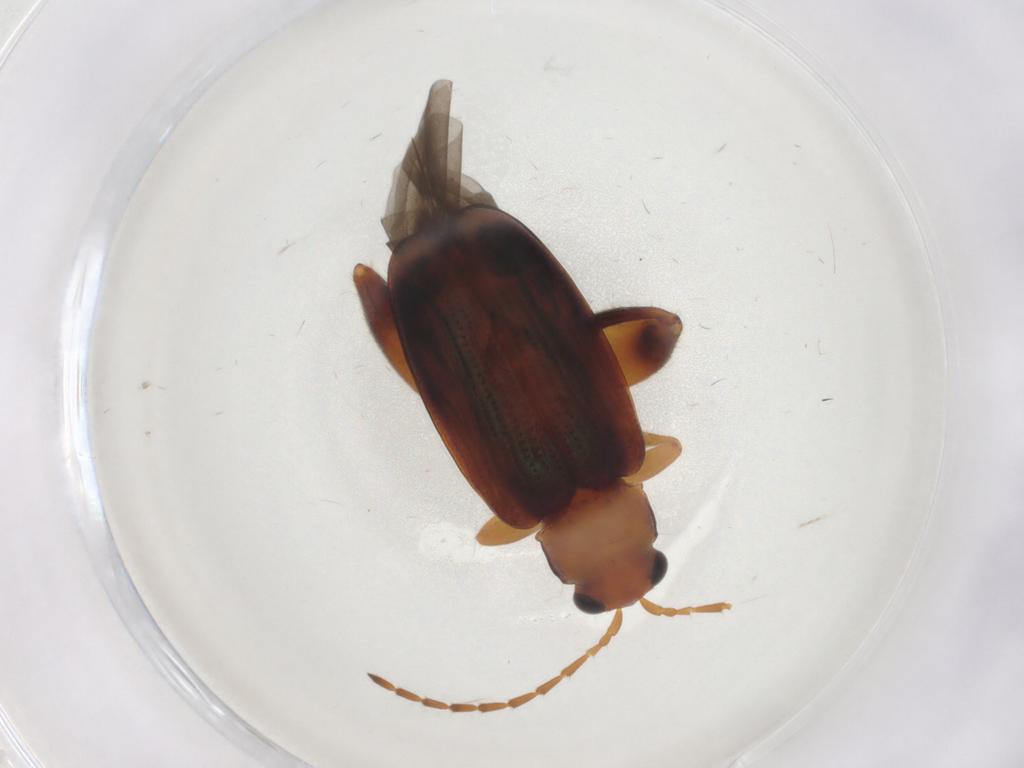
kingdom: Animalia
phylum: Arthropoda
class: Insecta
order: Coleoptera
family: Chrysomelidae
